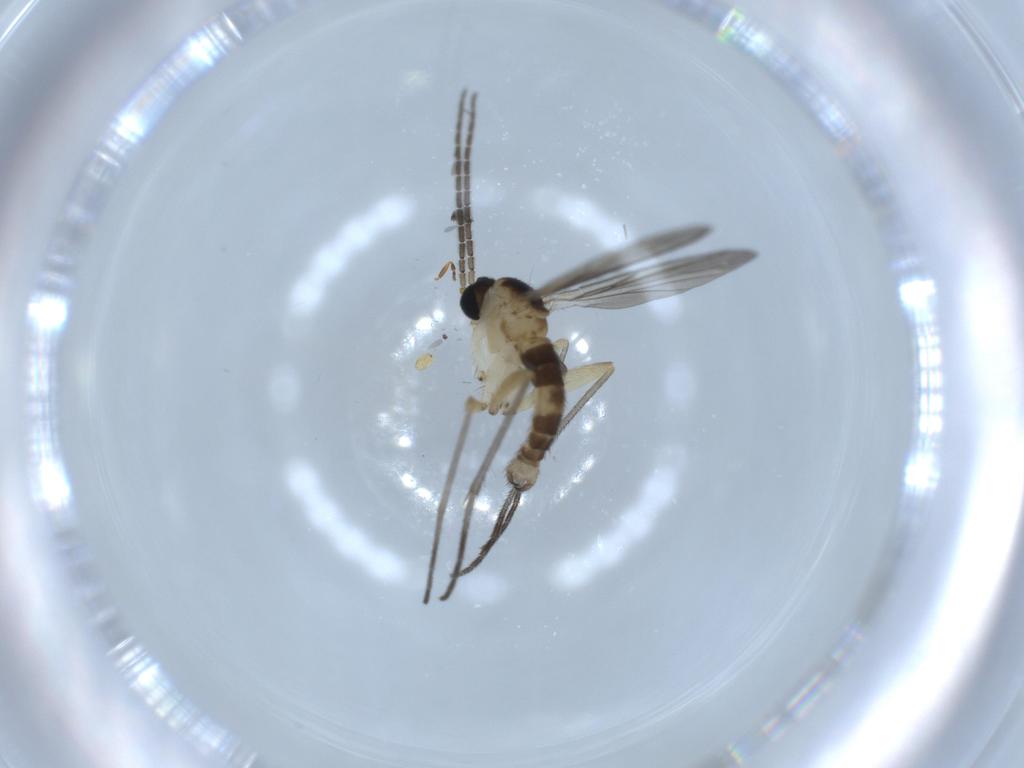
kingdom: Animalia
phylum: Arthropoda
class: Insecta
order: Diptera
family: Sciaridae
